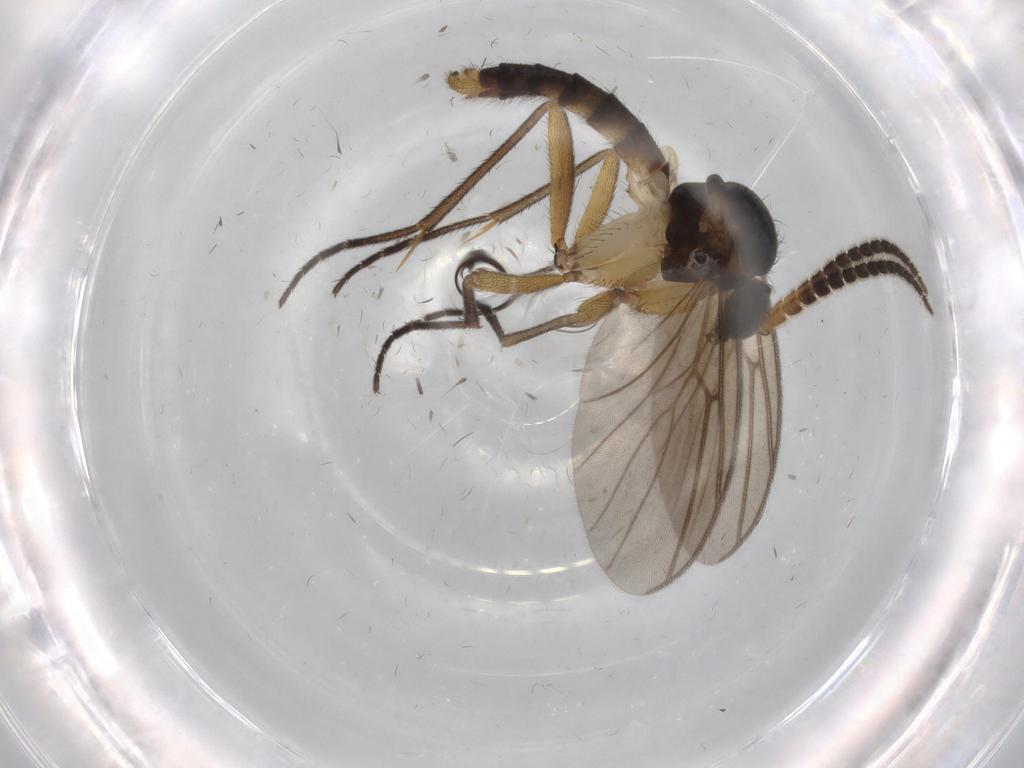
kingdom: Animalia
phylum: Arthropoda
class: Insecta
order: Diptera
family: Mycetophilidae
